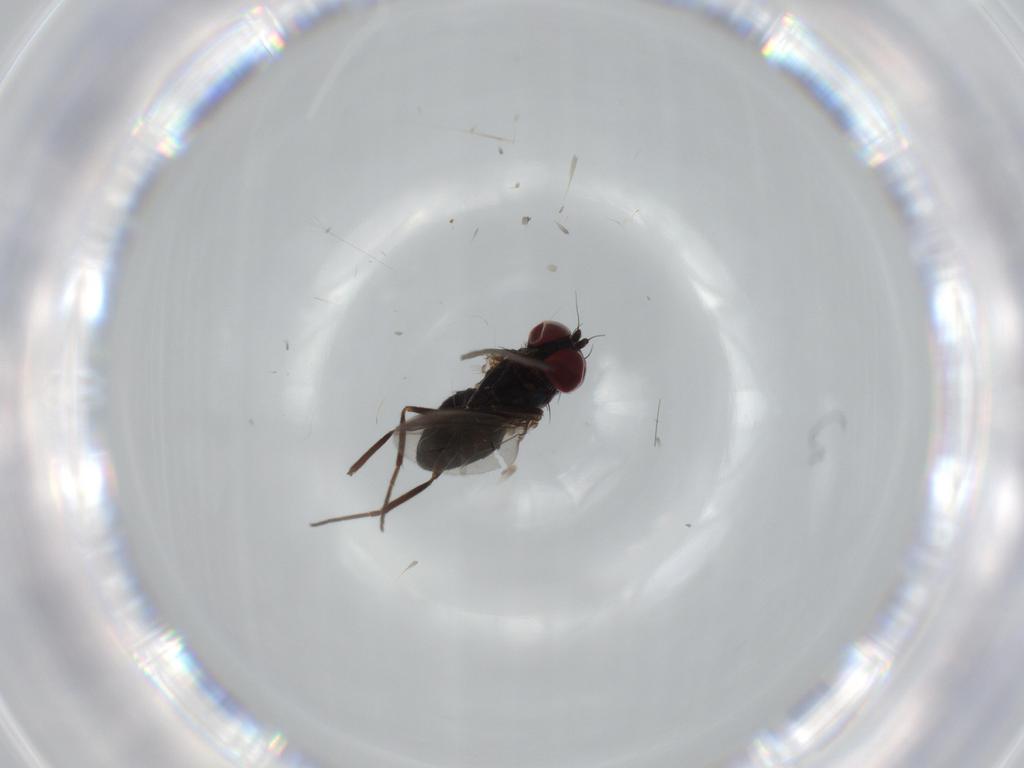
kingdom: Animalia
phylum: Arthropoda
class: Insecta
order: Diptera
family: Dolichopodidae
